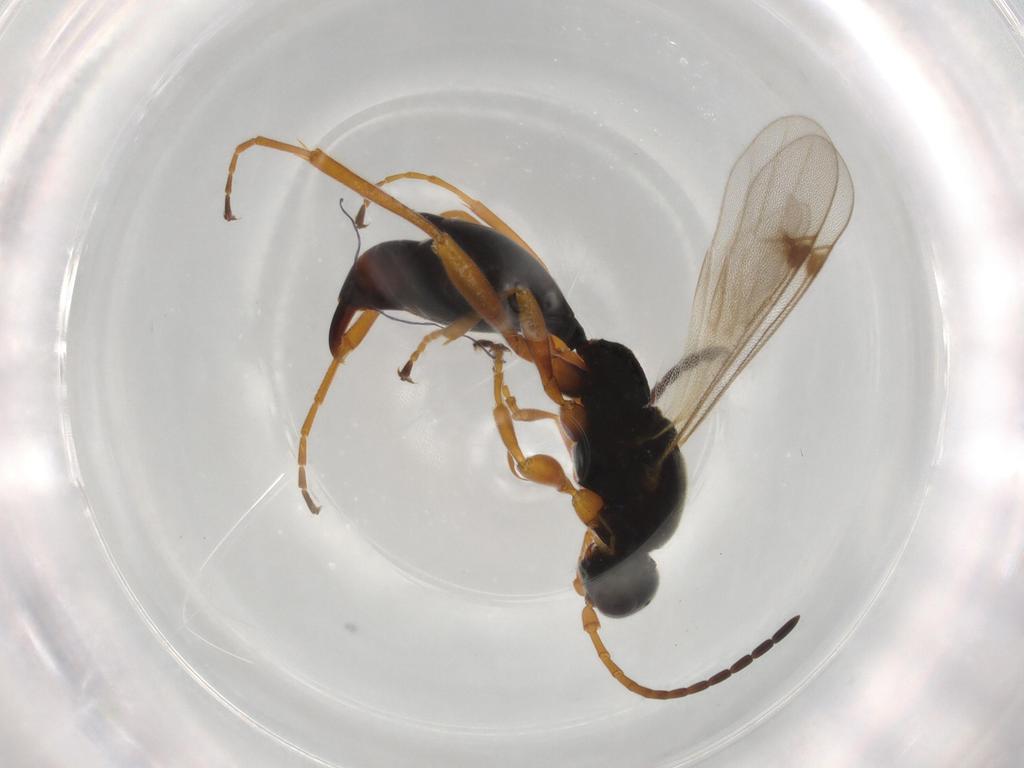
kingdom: Animalia
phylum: Arthropoda
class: Insecta
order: Hymenoptera
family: Proctotrupidae
